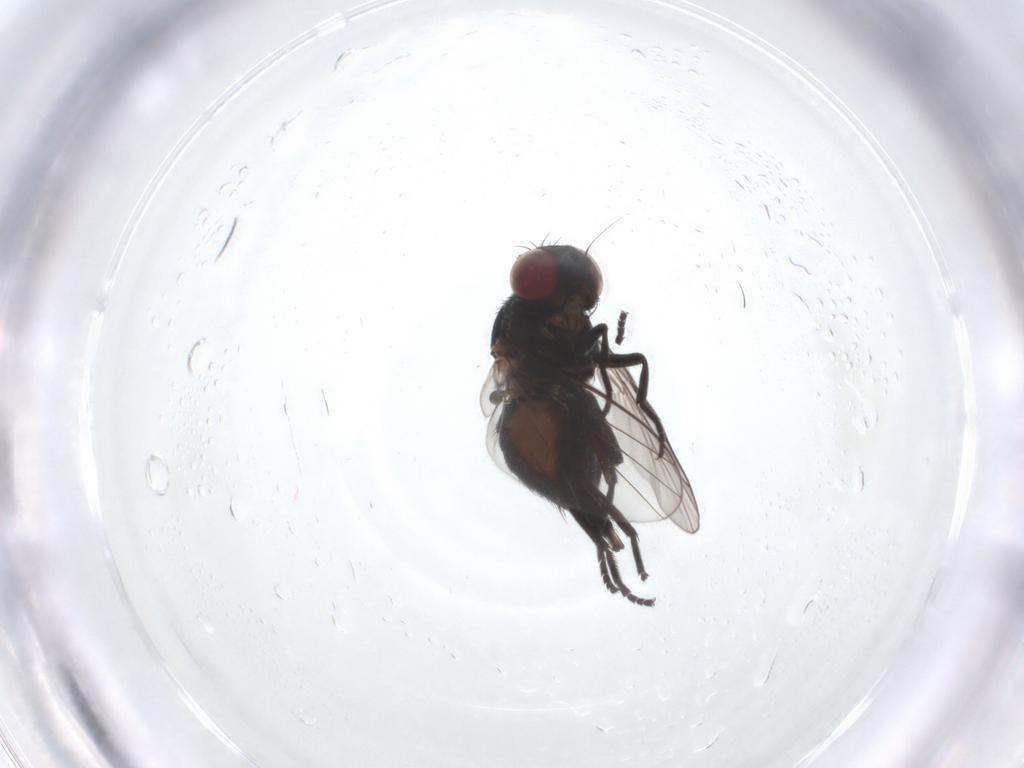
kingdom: Animalia
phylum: Arthropoda
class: Insecta
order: Diptera
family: Agromyzidae
